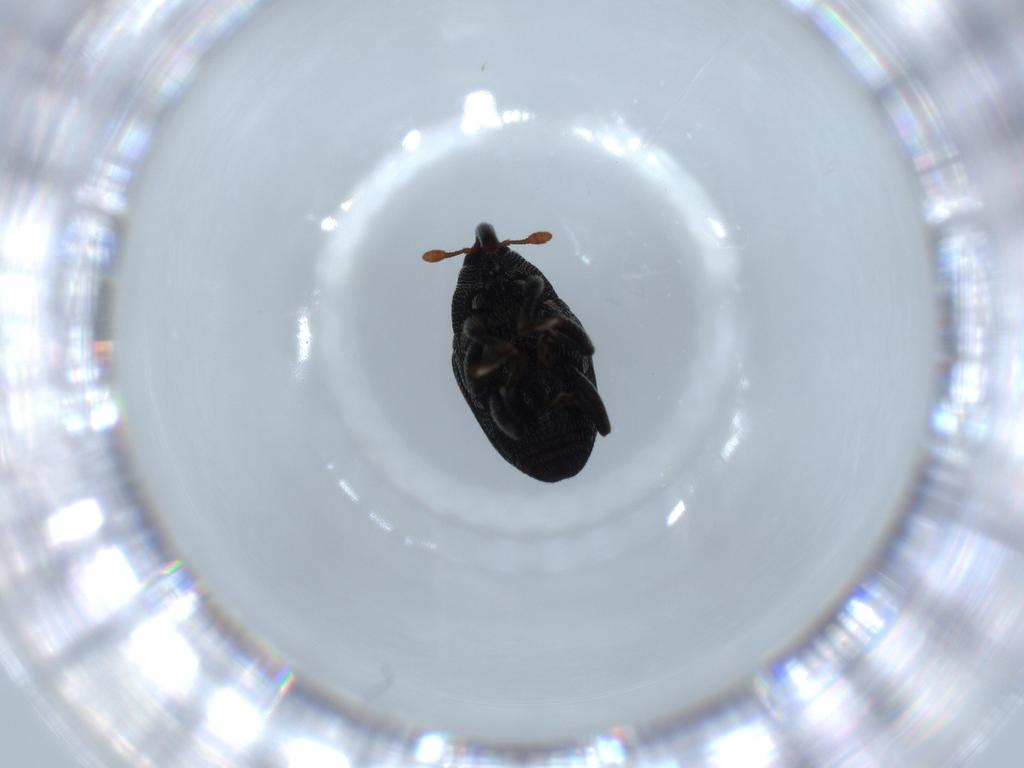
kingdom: Animalia
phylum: Arthropoda
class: Insecta
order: Coleoptera
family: Curculionidae
